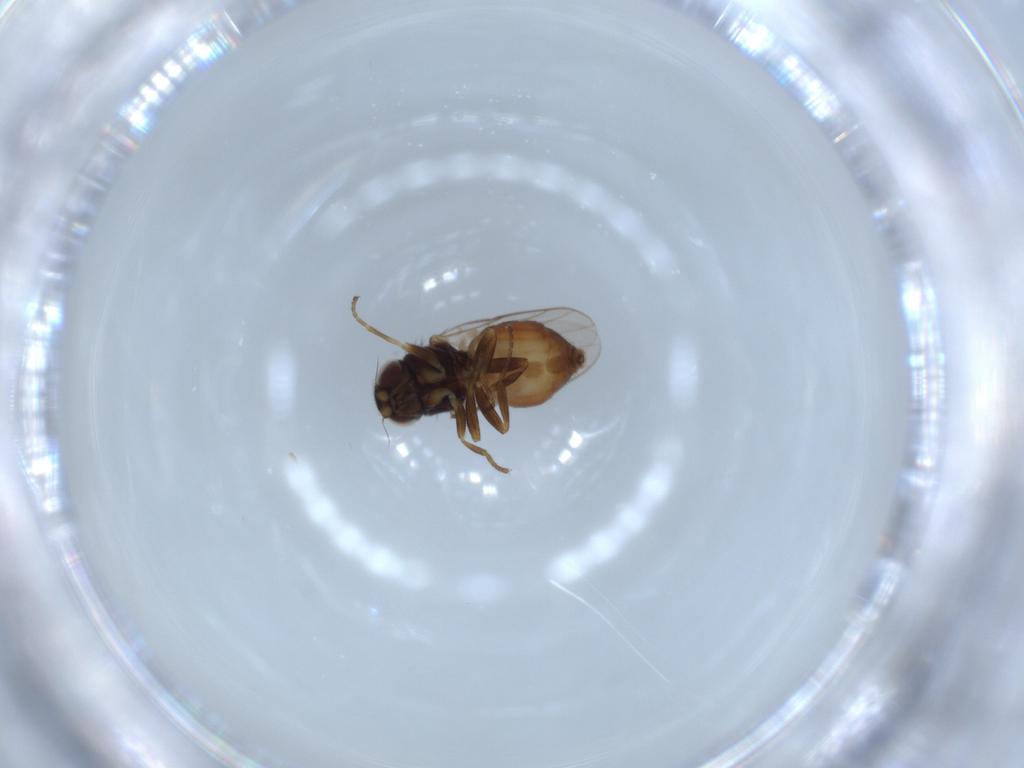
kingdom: Animalia
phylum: Arthropoda
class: Insecta
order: Diptera
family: Chloropidae
